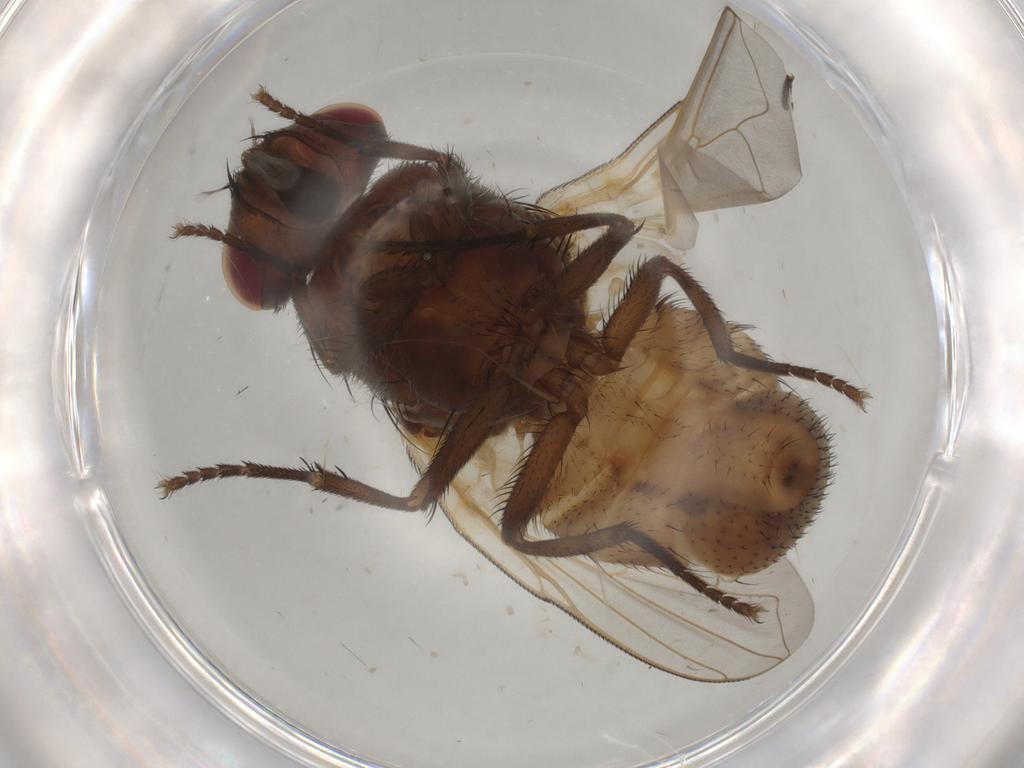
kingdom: Animalia
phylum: Arthropoda
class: Insecta
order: Diptera
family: Muscidae
